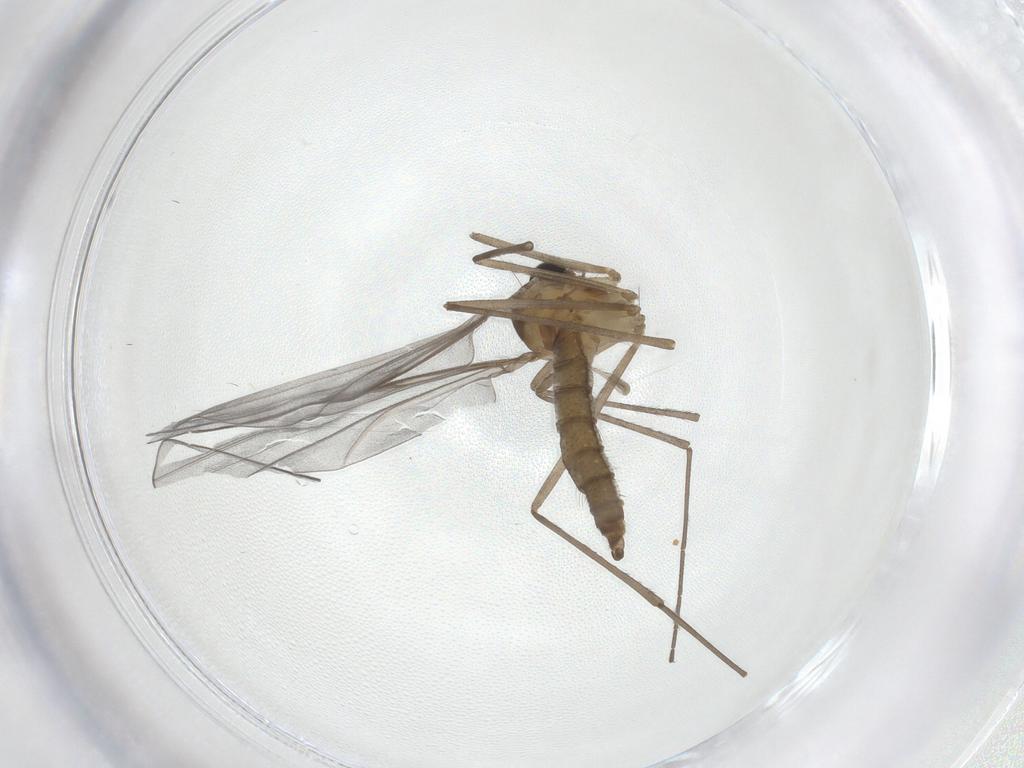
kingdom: Animalia
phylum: Arthropoda
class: Insecta
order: Diptera
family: Cecidomyiidae
